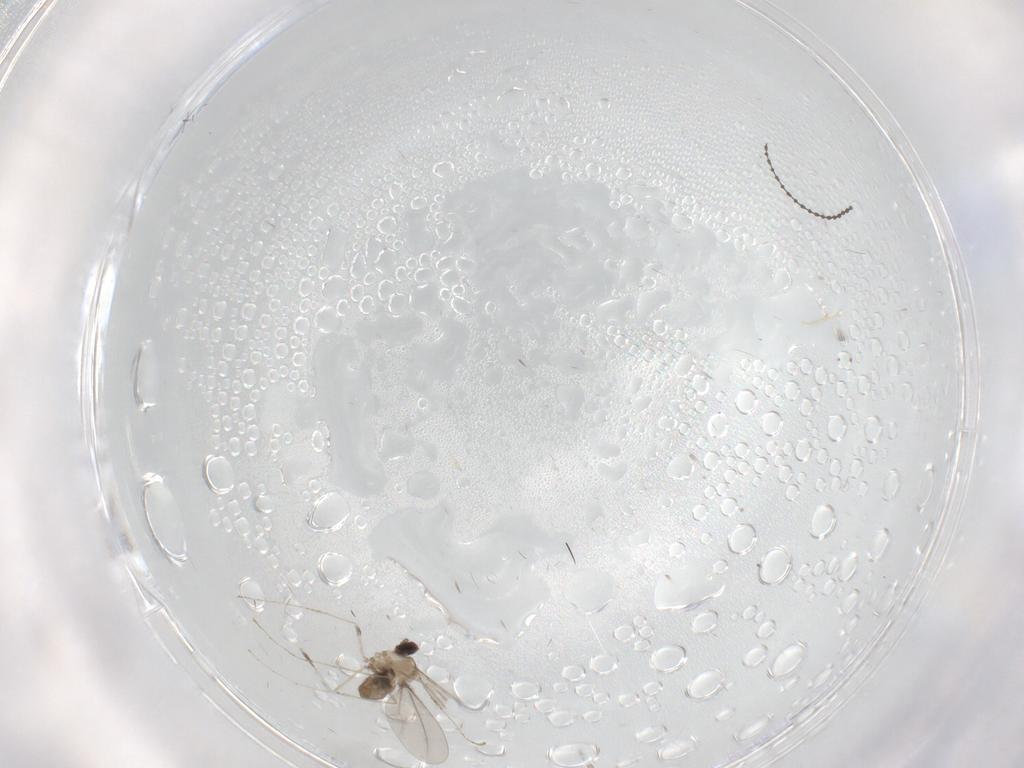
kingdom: Animalia
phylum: Arthropoda
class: Insecta
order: Diptera
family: Cecidomyiidae
